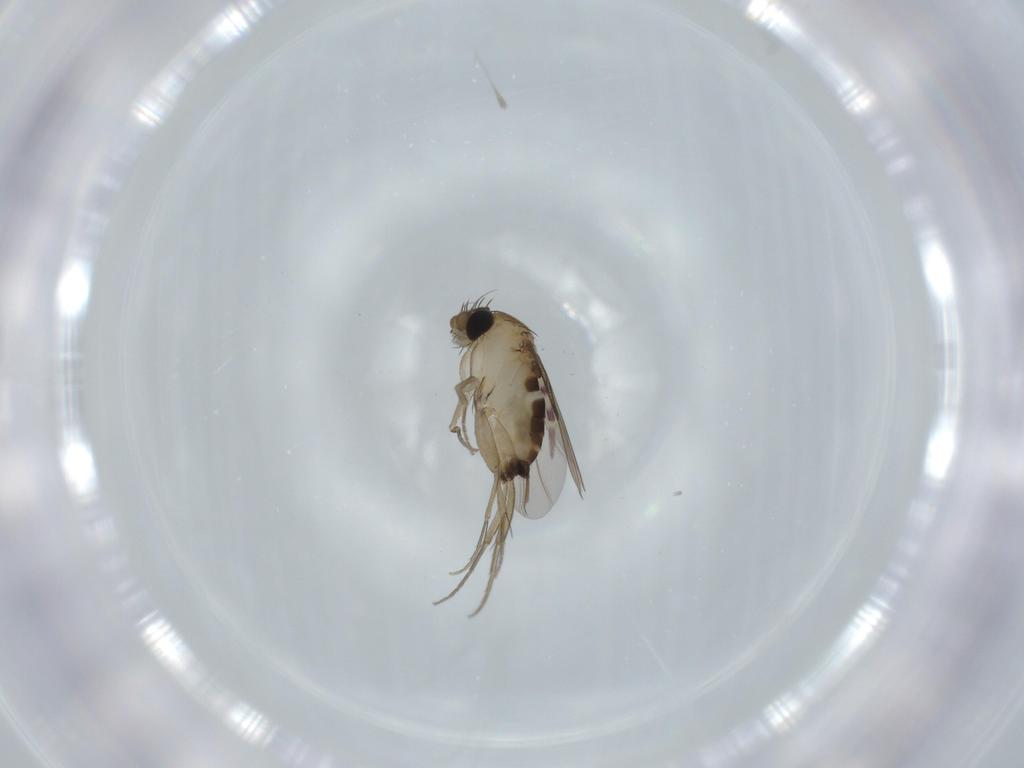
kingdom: Animalia
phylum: Arthropoda
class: Insecta
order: Diptera
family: Phoridae
